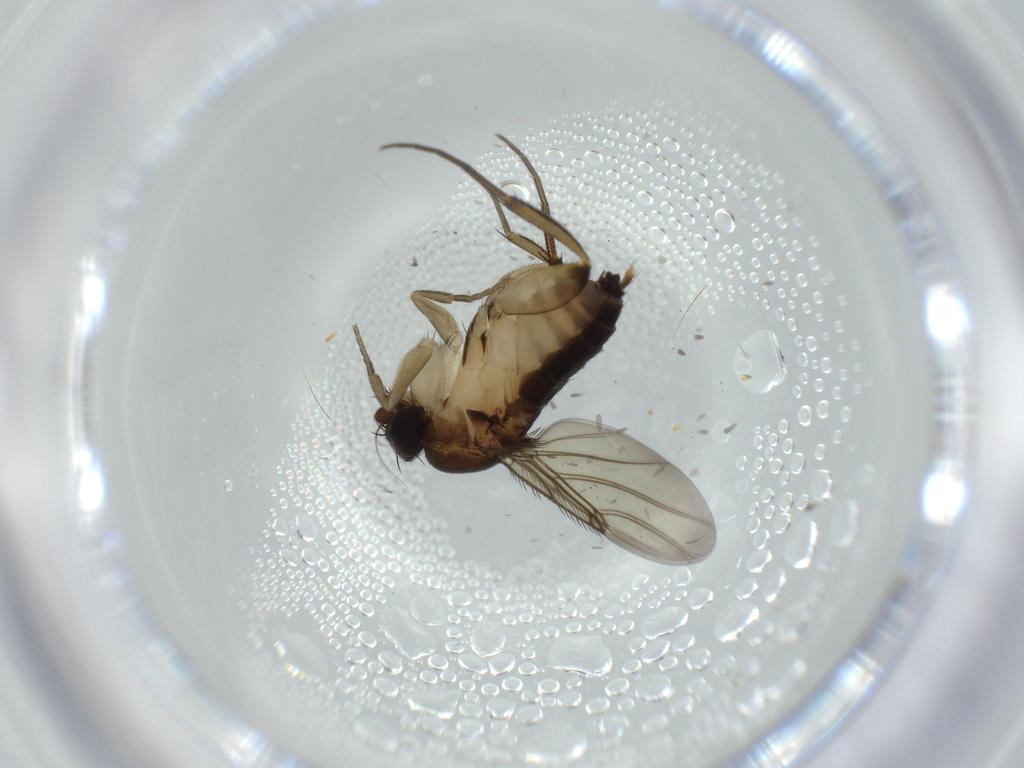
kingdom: Animalia
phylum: Arthropoda
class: Insecta
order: Diptera
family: Phoridae
